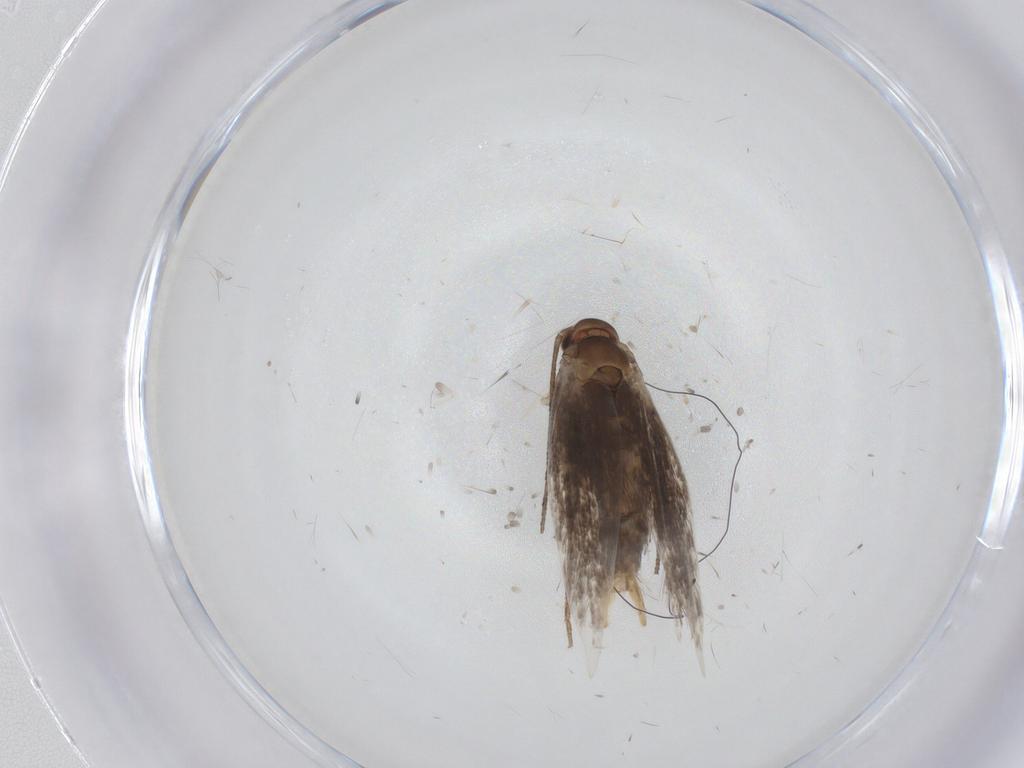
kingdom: Animalia
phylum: Arthropoda
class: Insecta
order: Lepidoptera
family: Elachistidae
